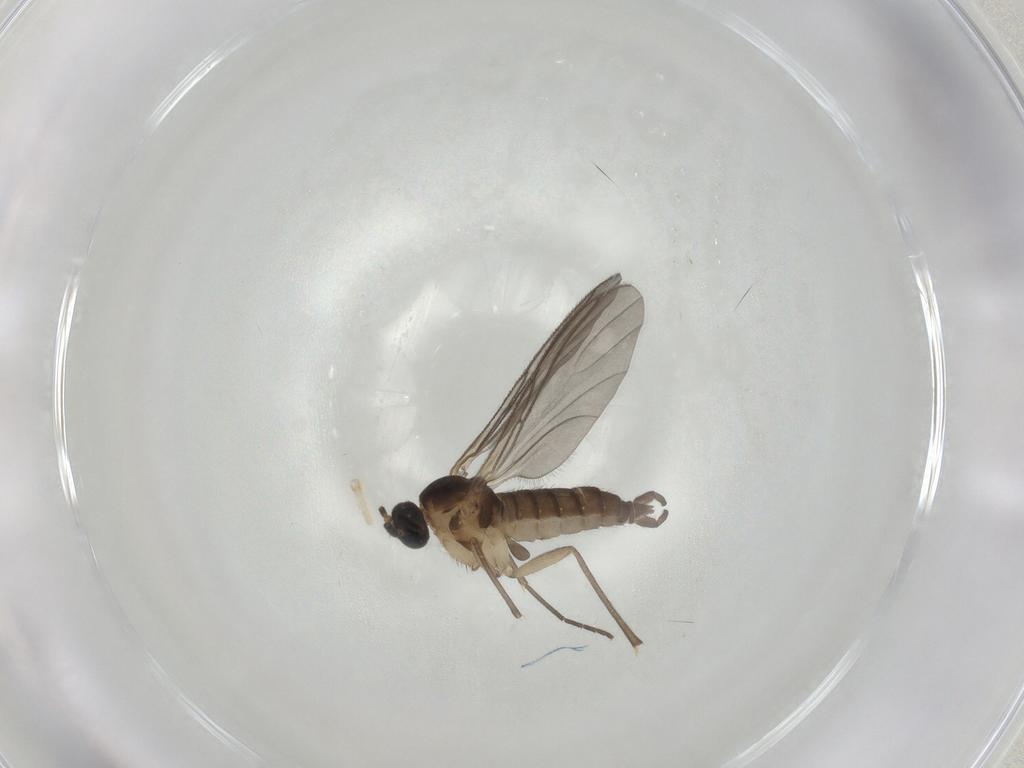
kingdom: Animalia
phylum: Arthropoda
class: Insecta
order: Diptera
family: Sciaridae
